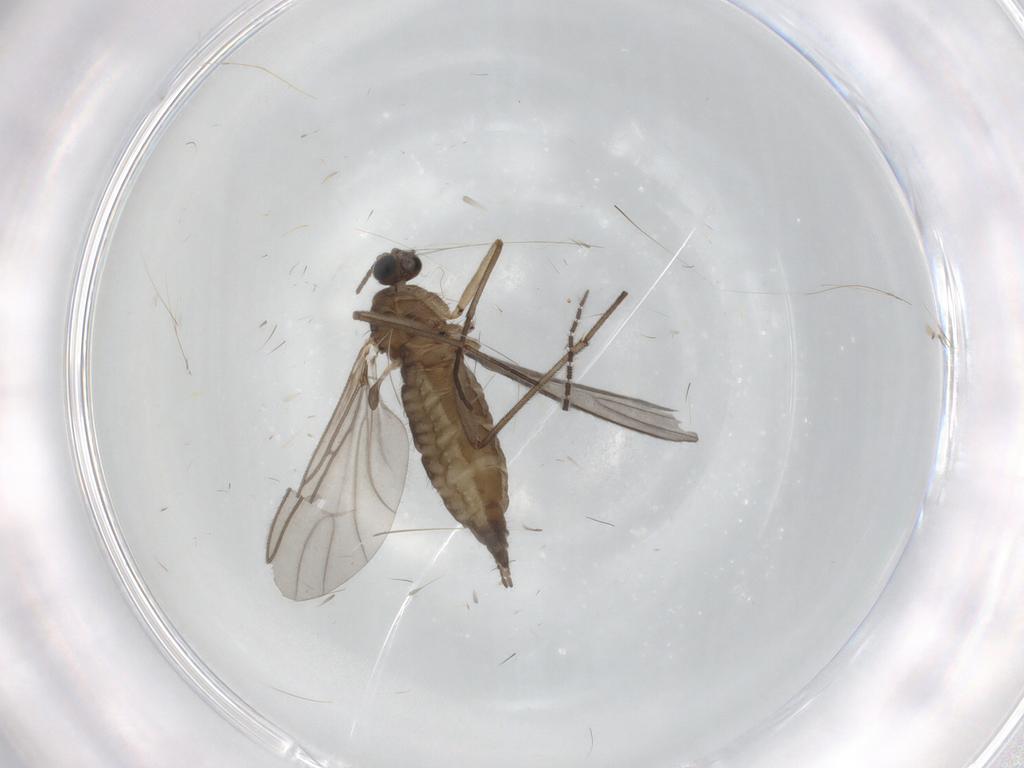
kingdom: Animalia
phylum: Arthropoda
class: Insecta
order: Diptera
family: Sciaridae
